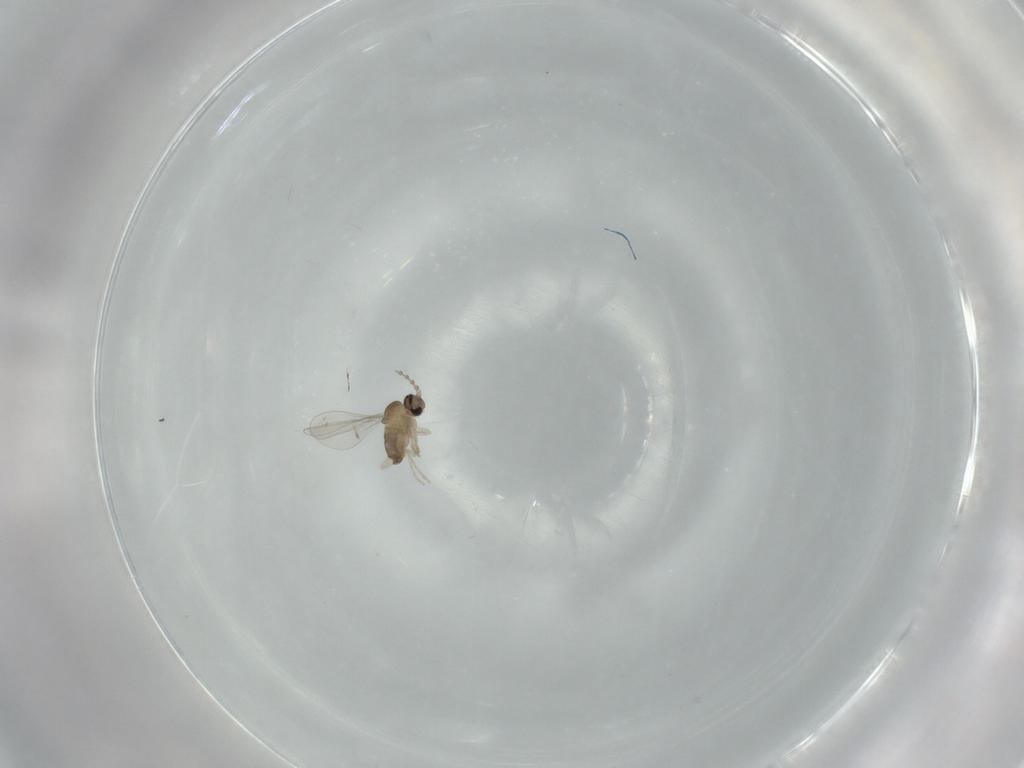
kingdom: Animalia
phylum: Arthropoda
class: Insecta
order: Diptera
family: Cecidomyiidae
